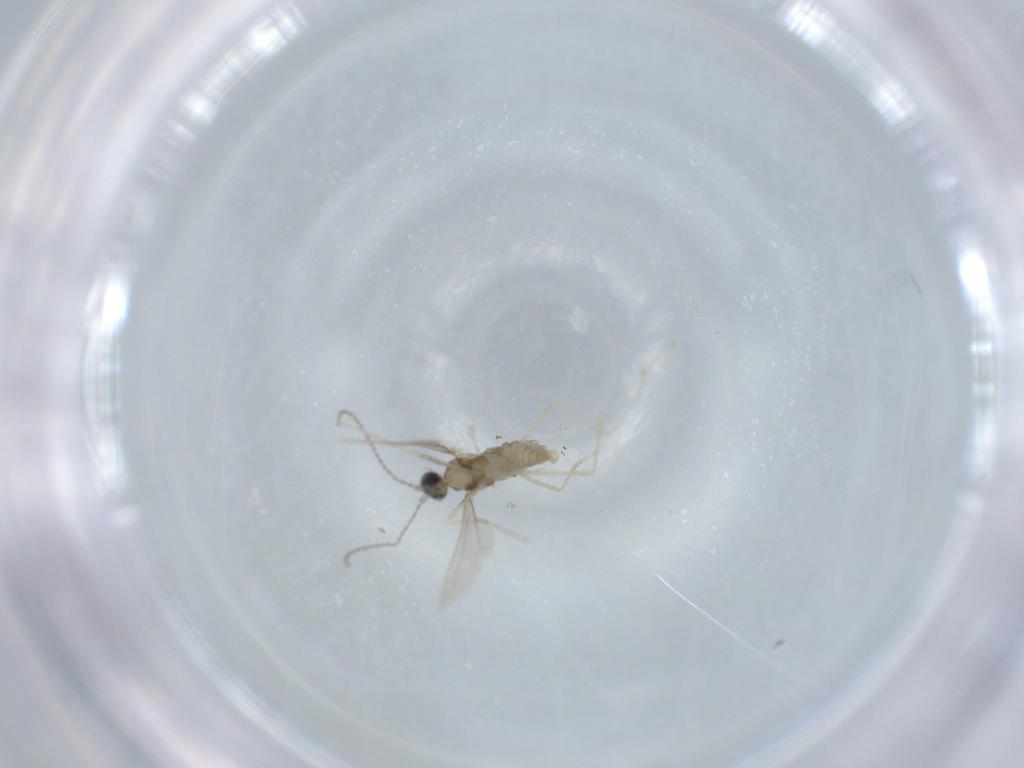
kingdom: Animalia
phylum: Arthropoda
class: Insecta
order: Diptera
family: Cecidomyiidae
